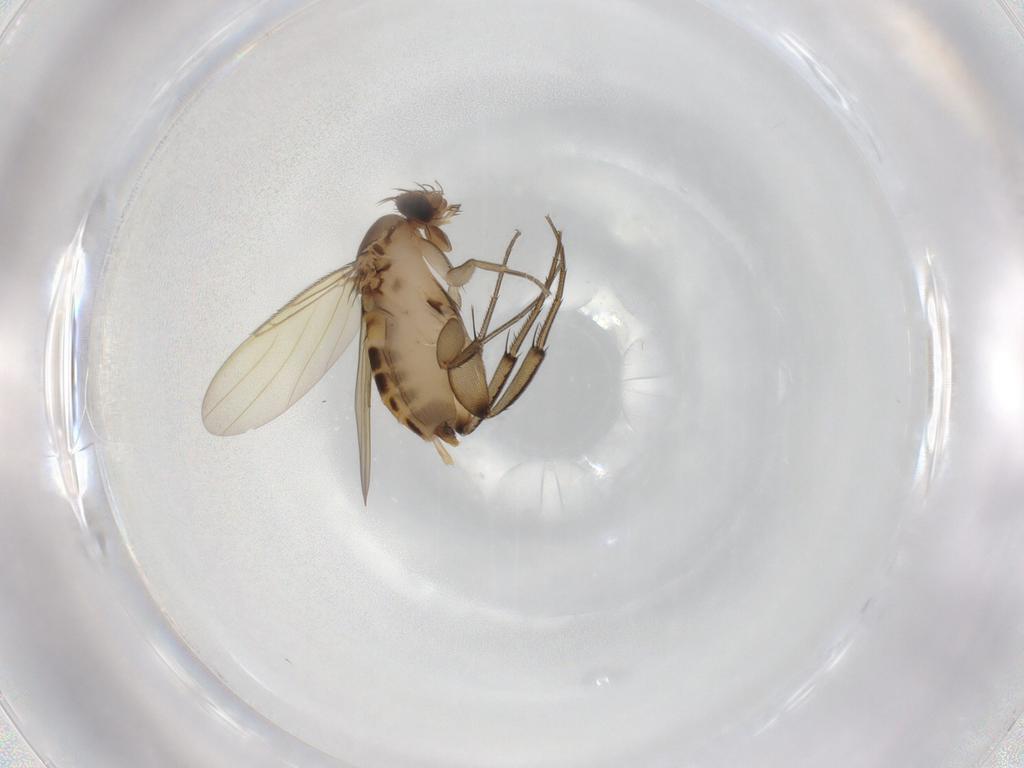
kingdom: Animalia
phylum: Arthropoda
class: Insecta
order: Diptera
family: Phoridae
